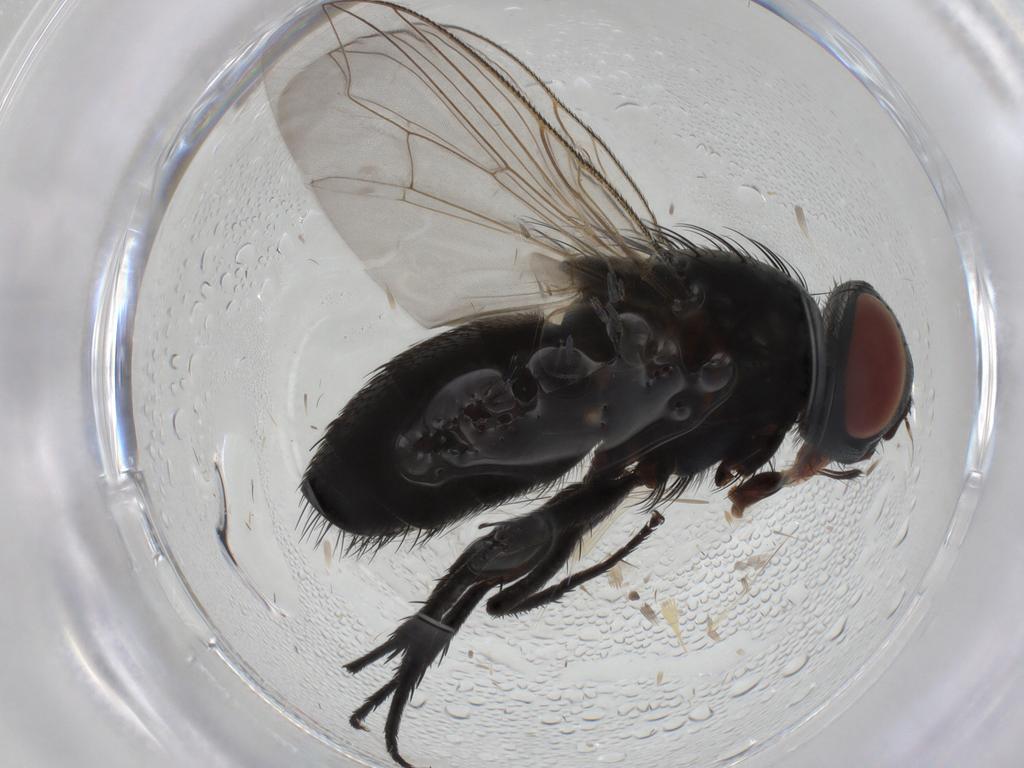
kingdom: Animalia
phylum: Arthropoda
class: Insecta
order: Diptera
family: Sarcophagidae
